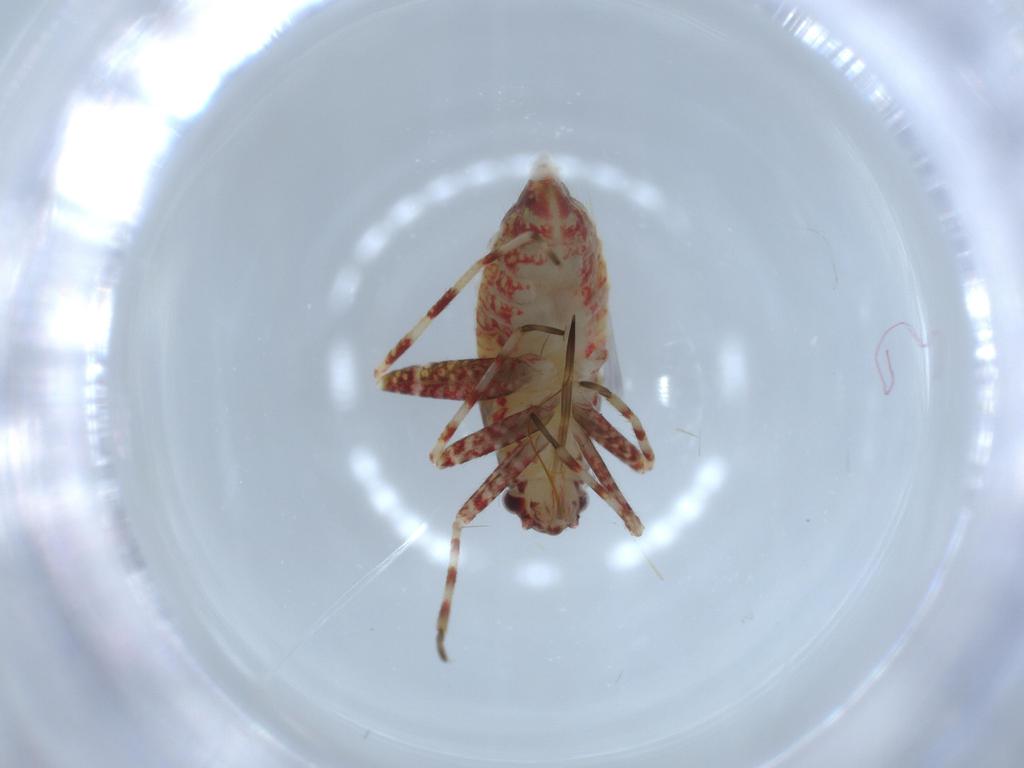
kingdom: Animalia
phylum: Arthropoda
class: Insecta
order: Hemiptera
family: Miridae
